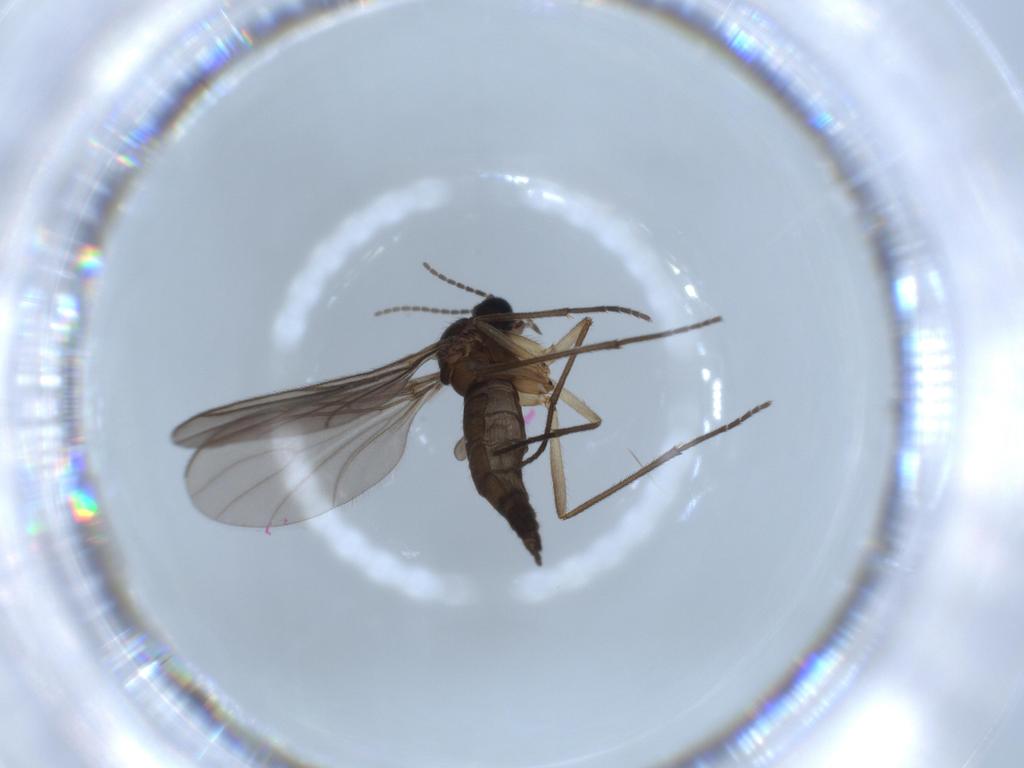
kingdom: Animalia
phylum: Arthropoda
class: Insecta
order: Diptera
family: Sciaridae
